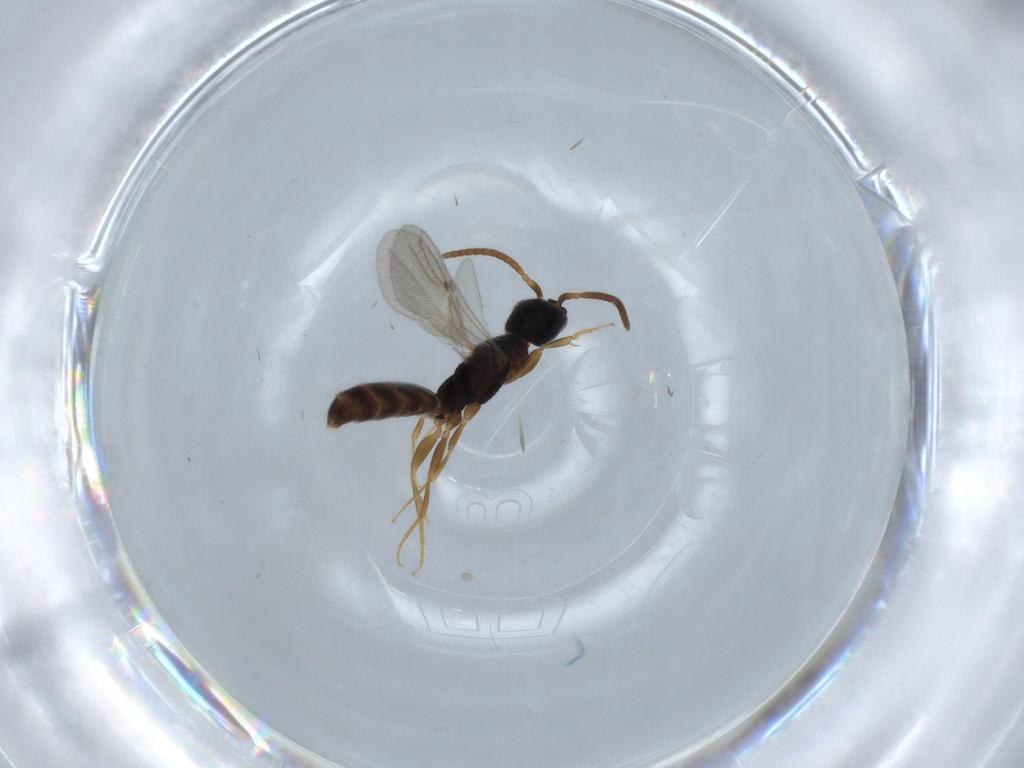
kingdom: Animalia
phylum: Arthropoda
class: Insecta
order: Hymenoptera
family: Bethylidae
